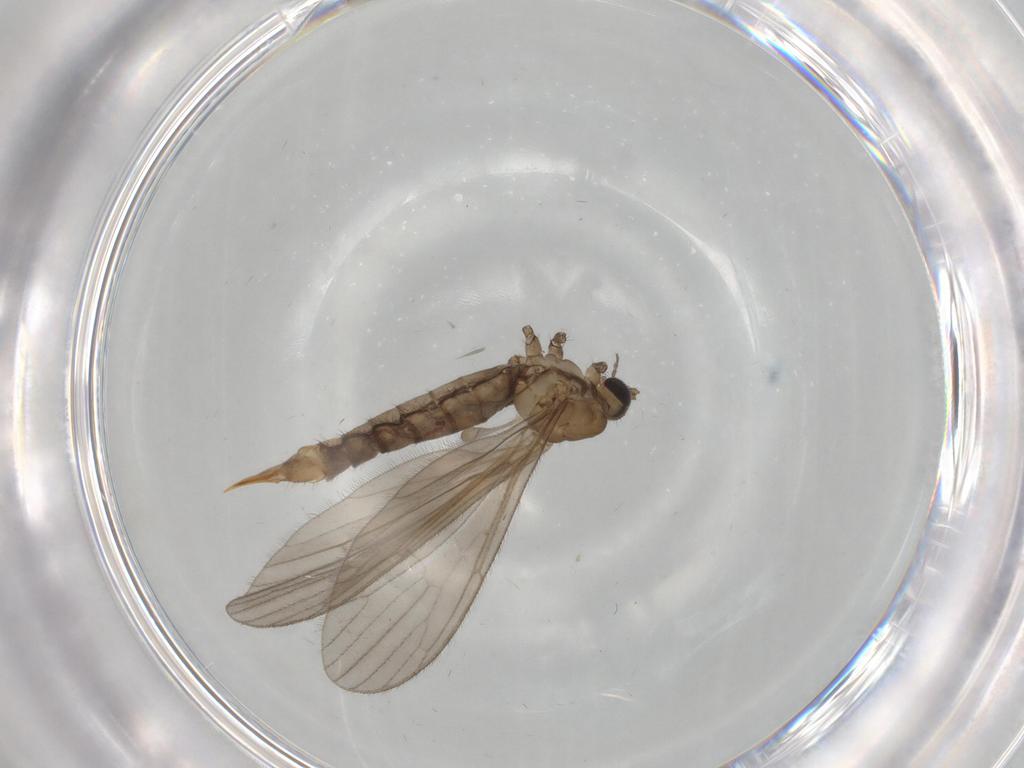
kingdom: Animalia
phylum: Arthropoda
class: Insecta
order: Diptera
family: Limoniidae
